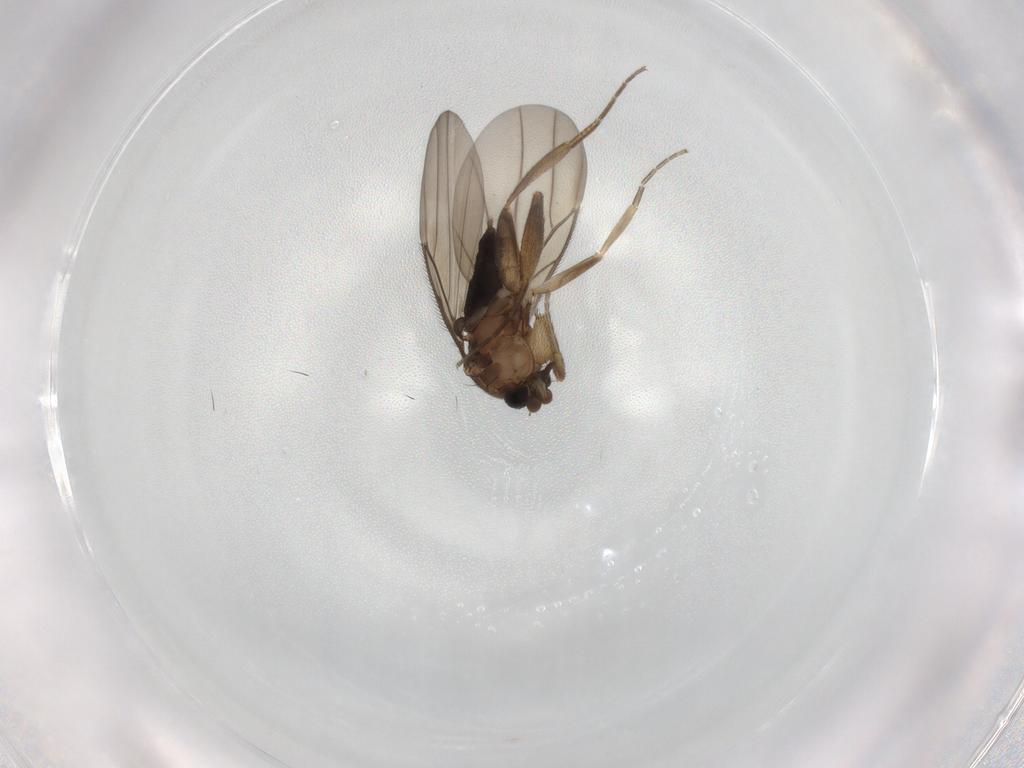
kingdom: Animalia
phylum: Arthropoda
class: Insecta
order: Diptera
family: Phoridae
